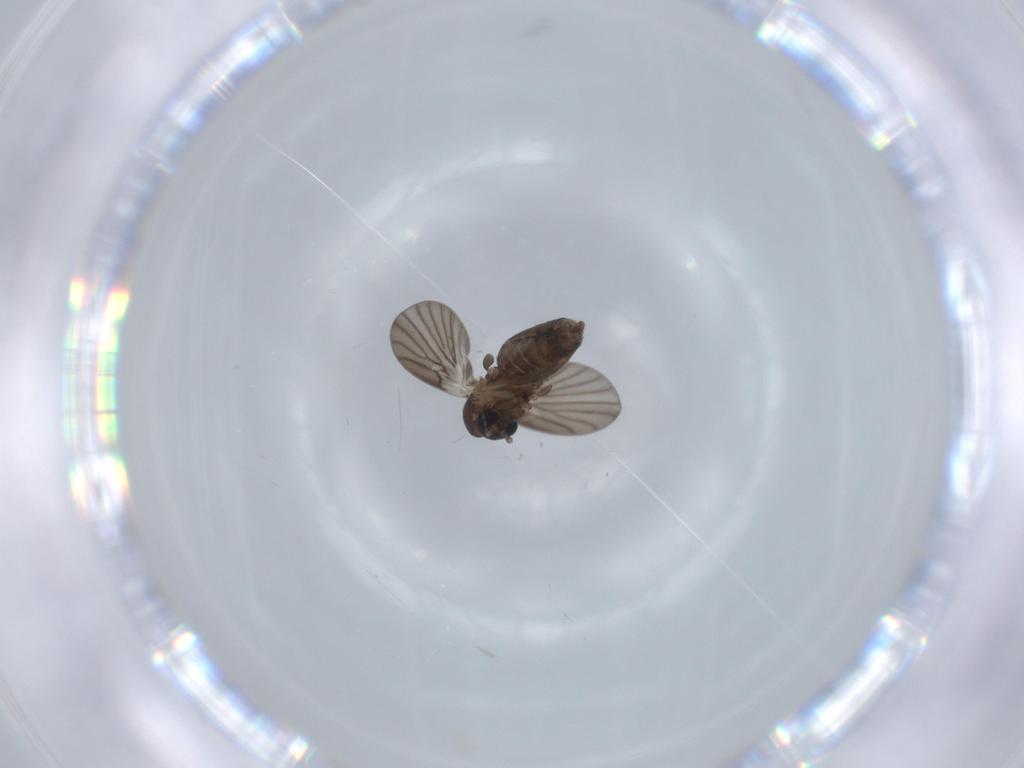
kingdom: Animalia
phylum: Arthropoda
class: Insecta
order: Diptera
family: Psychodidae
